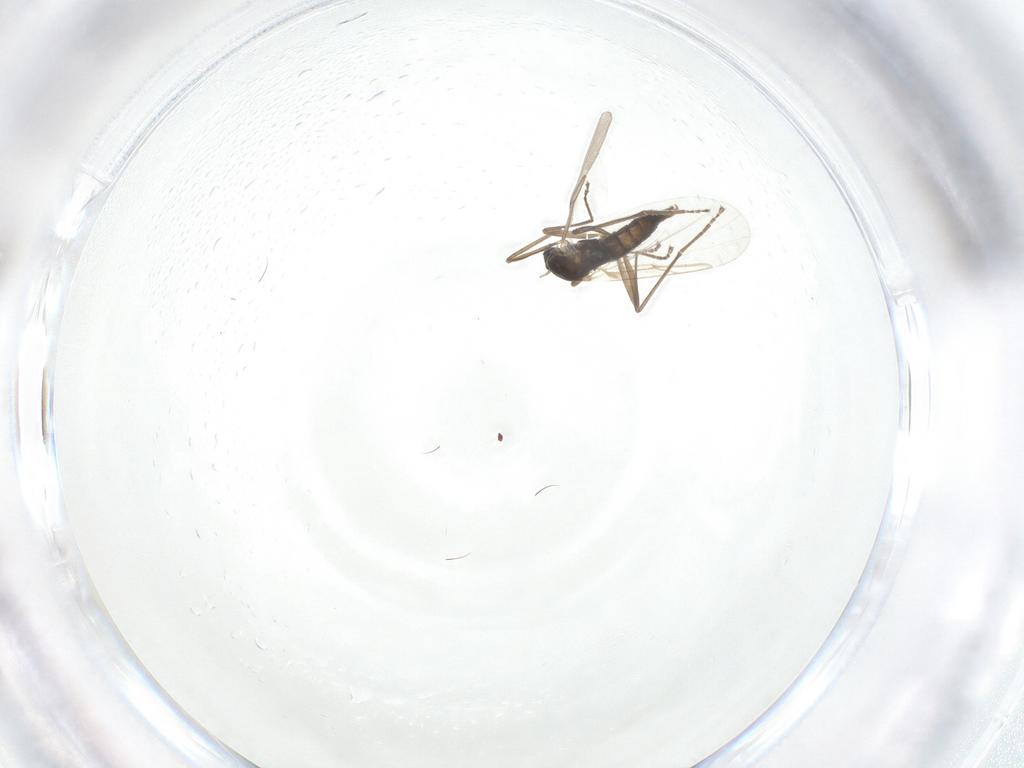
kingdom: Animalia
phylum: Arthropoda
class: Insecta
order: Diptera
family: Cecidomyiidae
